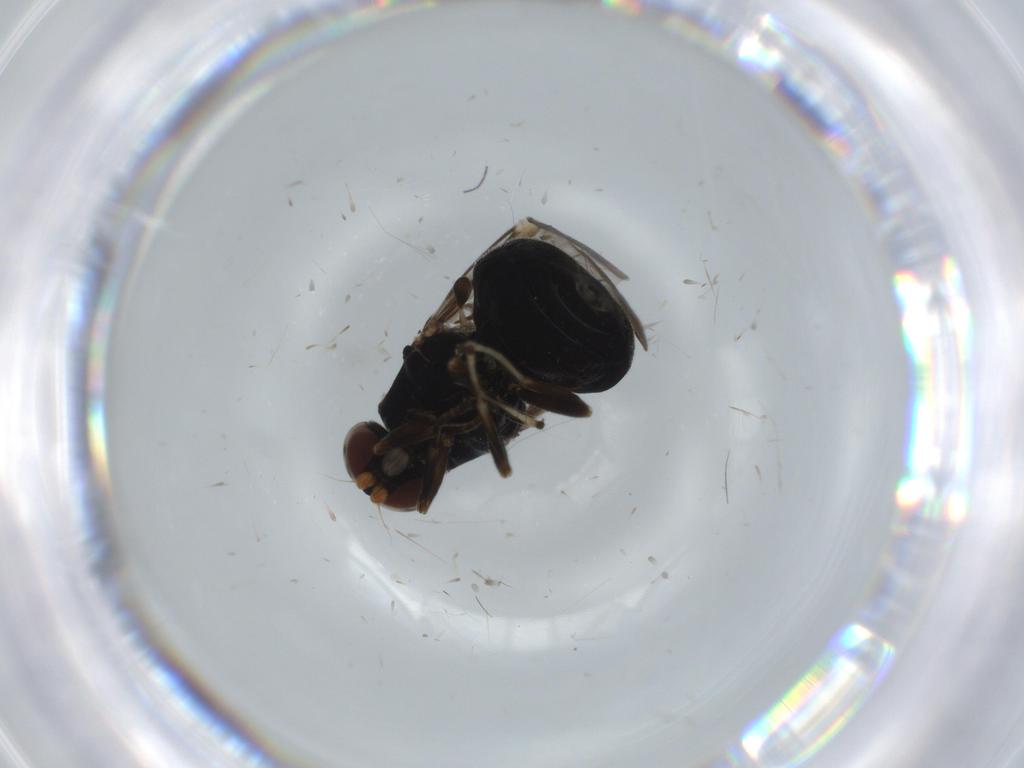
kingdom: Animalia
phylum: Arthropoda
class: Insecta
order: Diptera
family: Stratiomyidae
